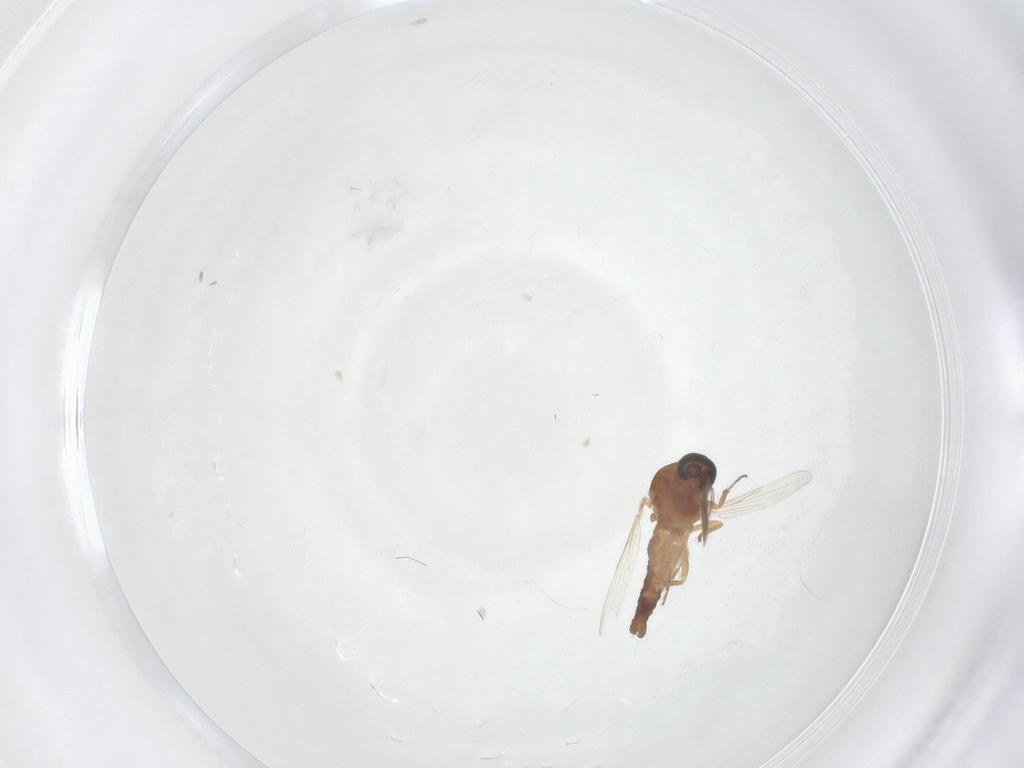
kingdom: Animalia
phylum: Arthropoda
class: Insecta
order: Diptera
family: Ceratopogonidae
